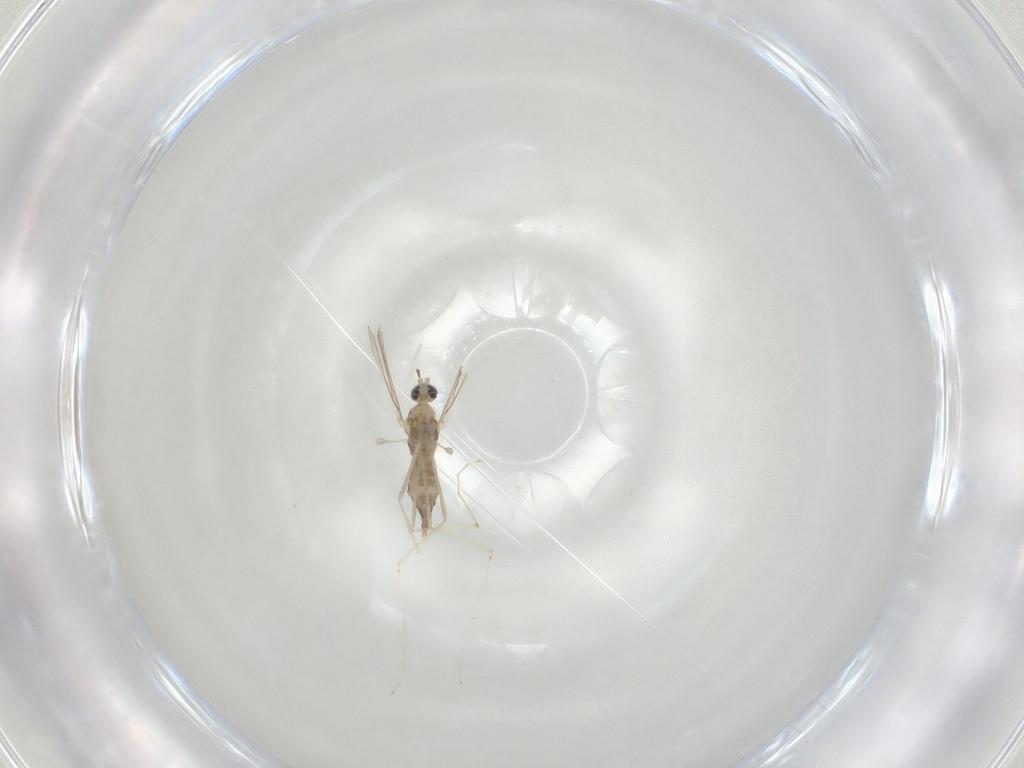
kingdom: Animalia
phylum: Arthropoda
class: Insecta
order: Diptera
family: Cecidomyiidae
